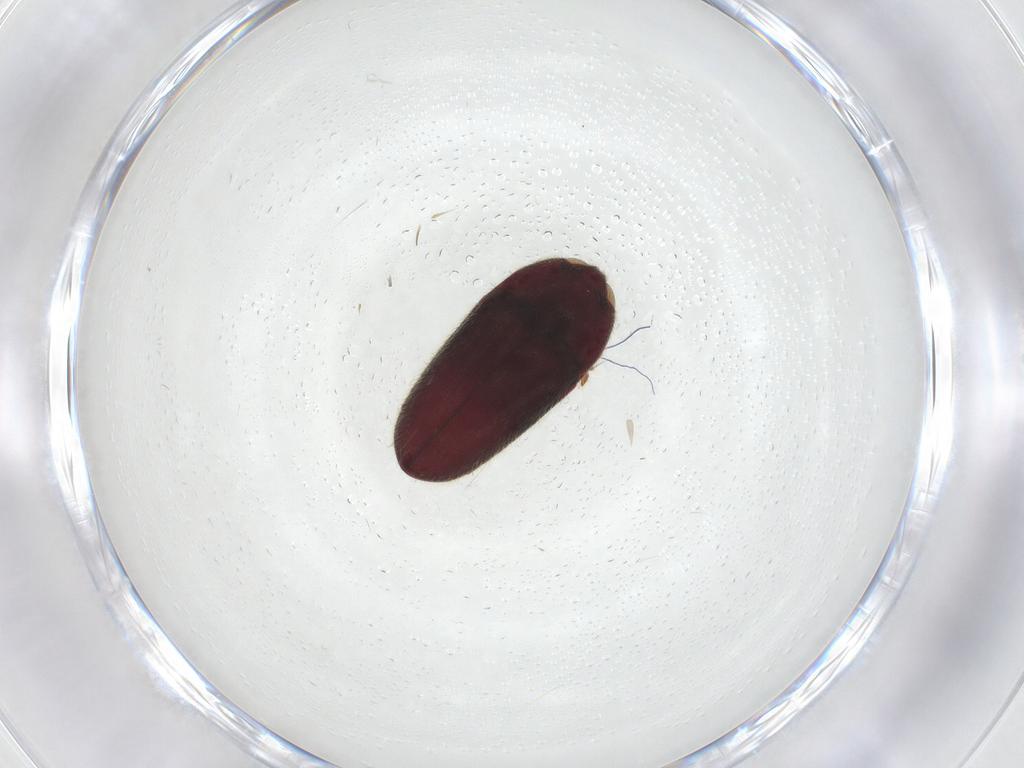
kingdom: Animalia
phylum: Arthropoda
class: Insecta
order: Coleoptera
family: Throscidae
